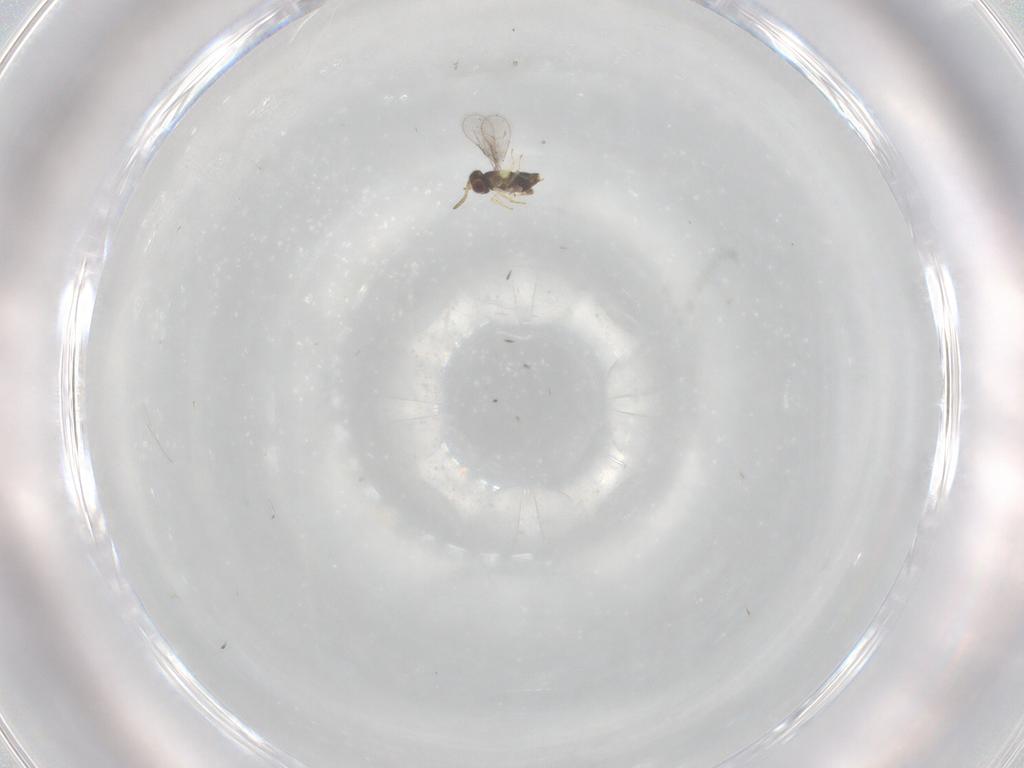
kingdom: Animalia
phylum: Arthropoda
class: Insecta
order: Hymenoptera
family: Aphelinidae
